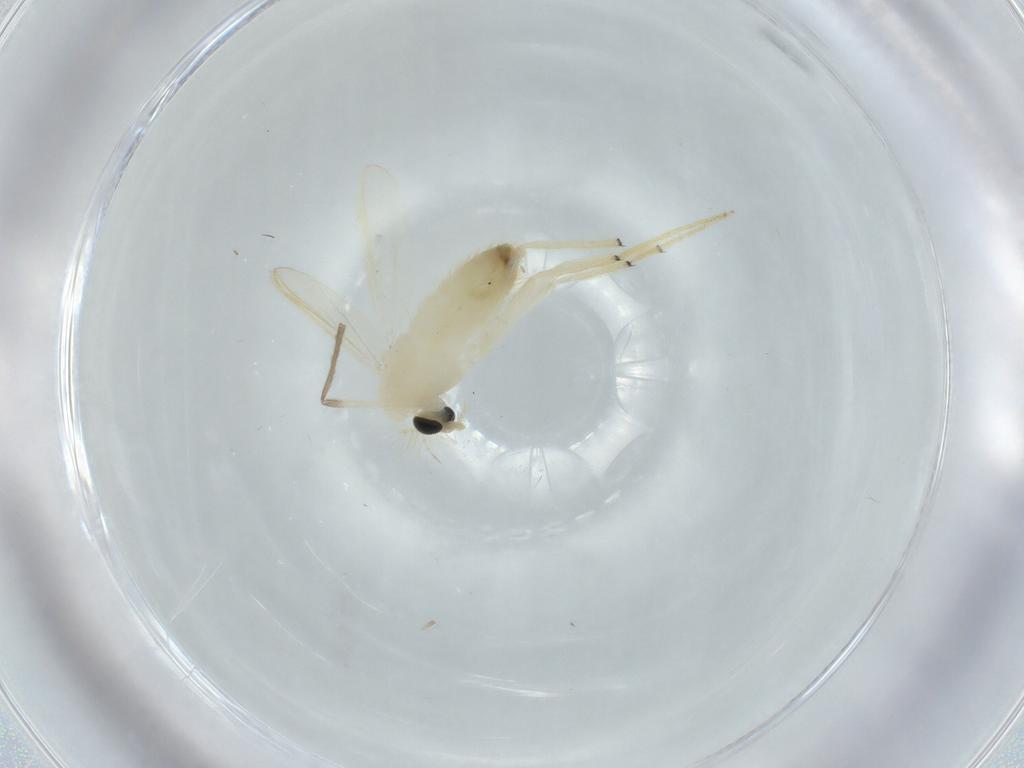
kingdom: Animalia
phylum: Arthropoda
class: Insecta
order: Diptera
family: Chironomidae
